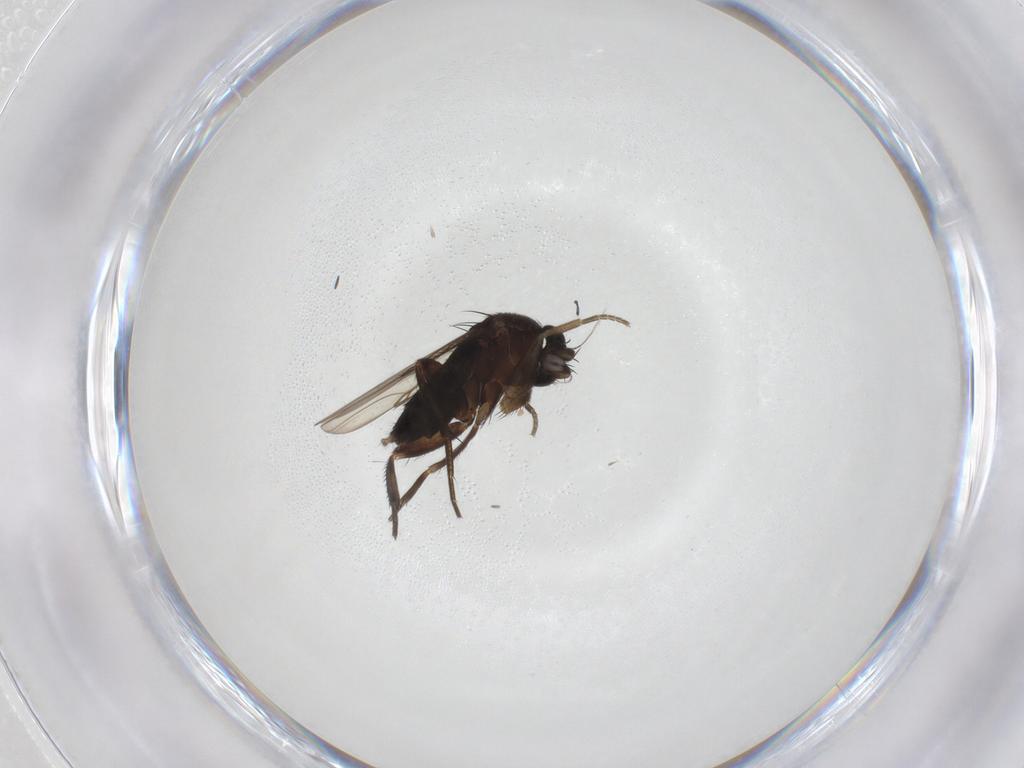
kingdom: Animalia
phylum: Arthropoda
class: Insecta
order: Diptera
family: Phoridae
